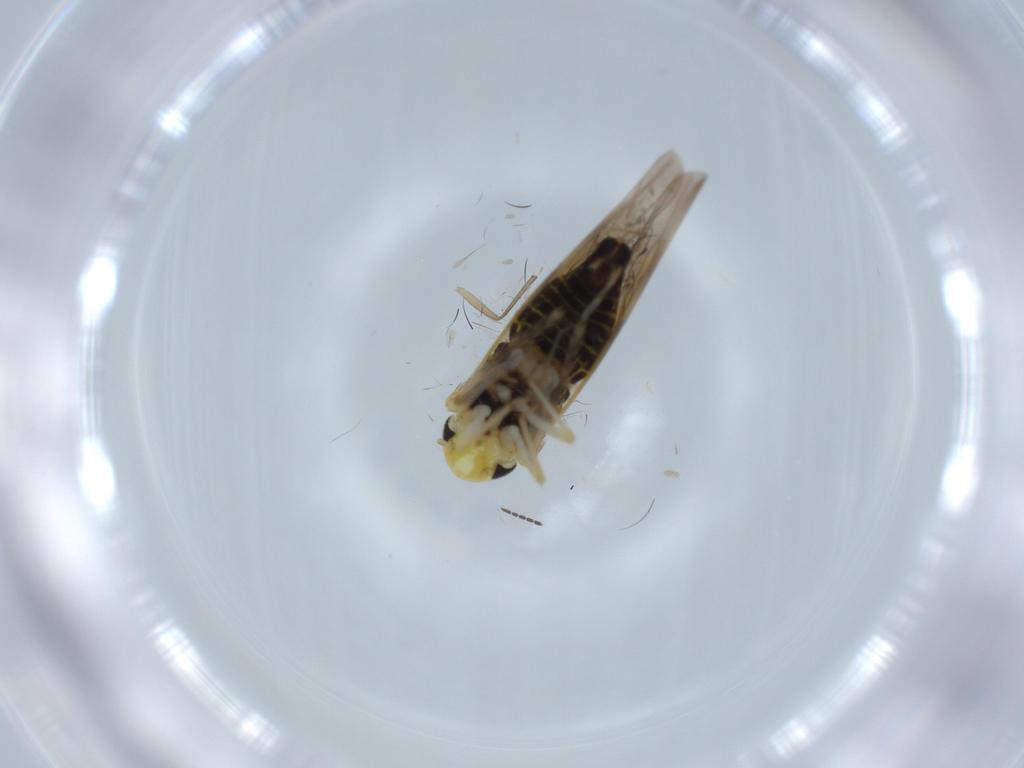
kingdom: Animalia
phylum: Arthropoda
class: Insecta
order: Hemiptera
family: Cicadellidae
